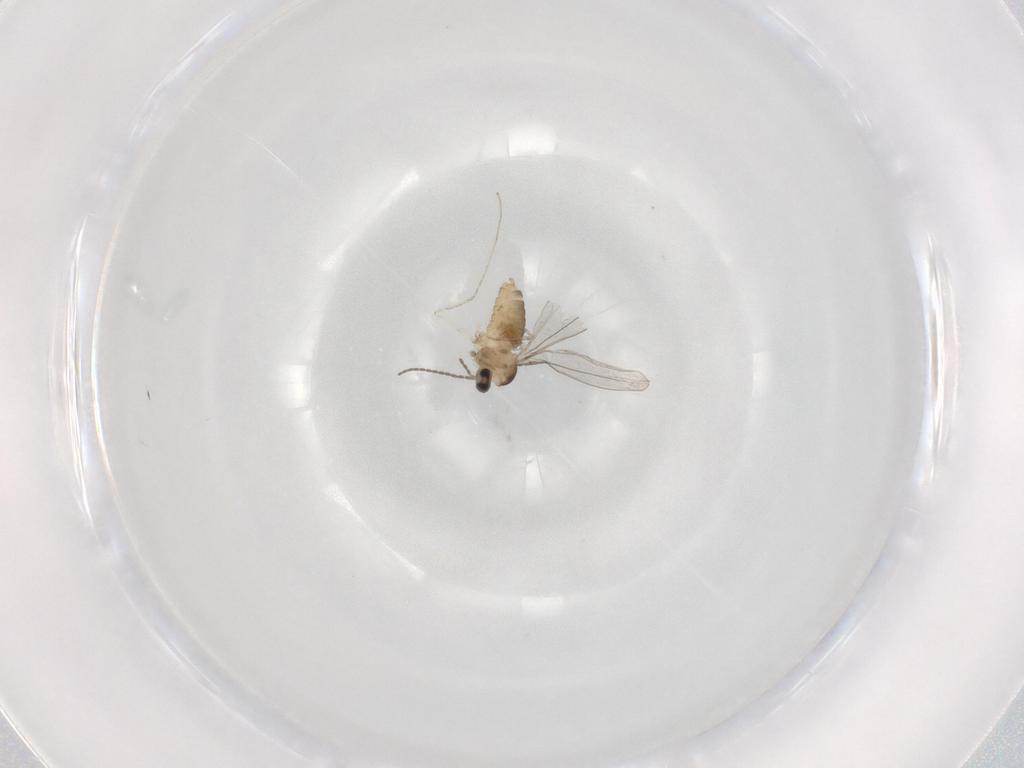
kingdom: Animalia
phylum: Arthropoda
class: Insecta
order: Diptera
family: Cecidomyiidae
